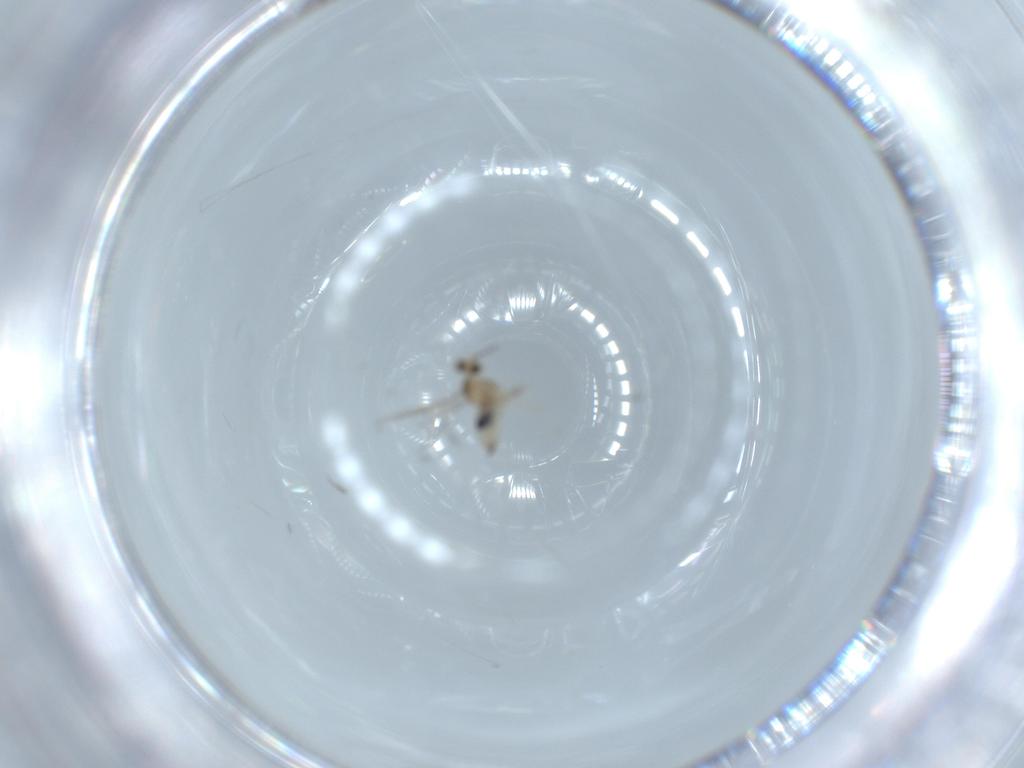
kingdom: Animalia
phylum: Arthropoda
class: Insecta
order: Diptera
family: Ceratopogonidae
